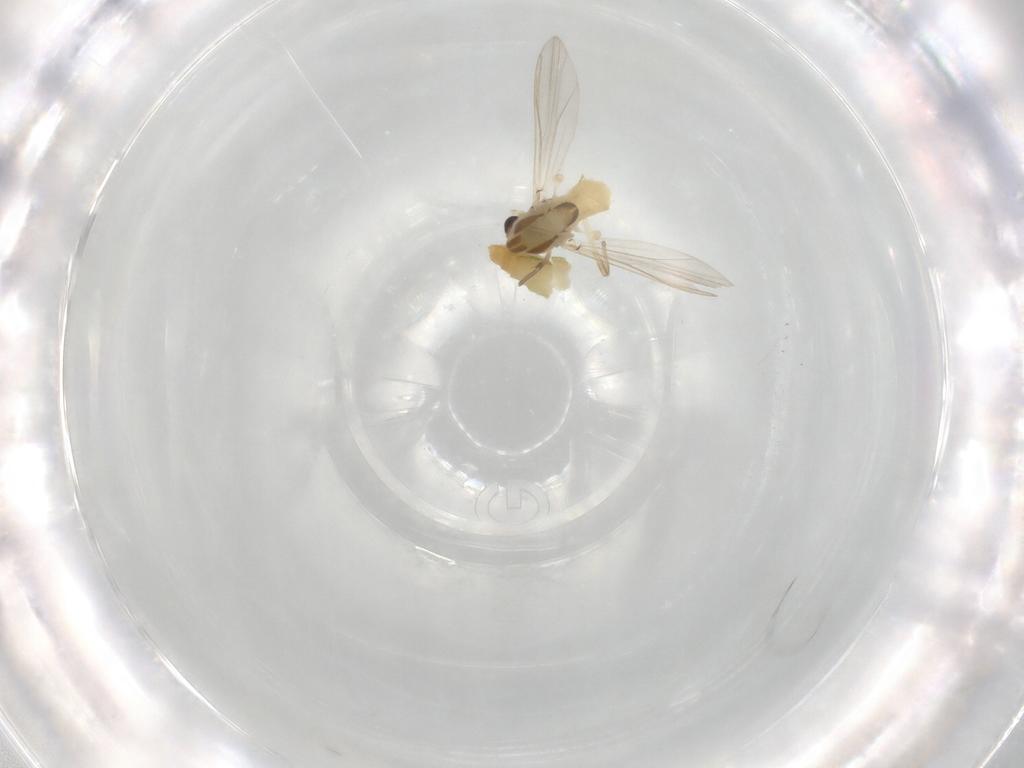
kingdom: Animalia
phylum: Arthropoda
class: Insecta
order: Diptera
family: Chironomidae
